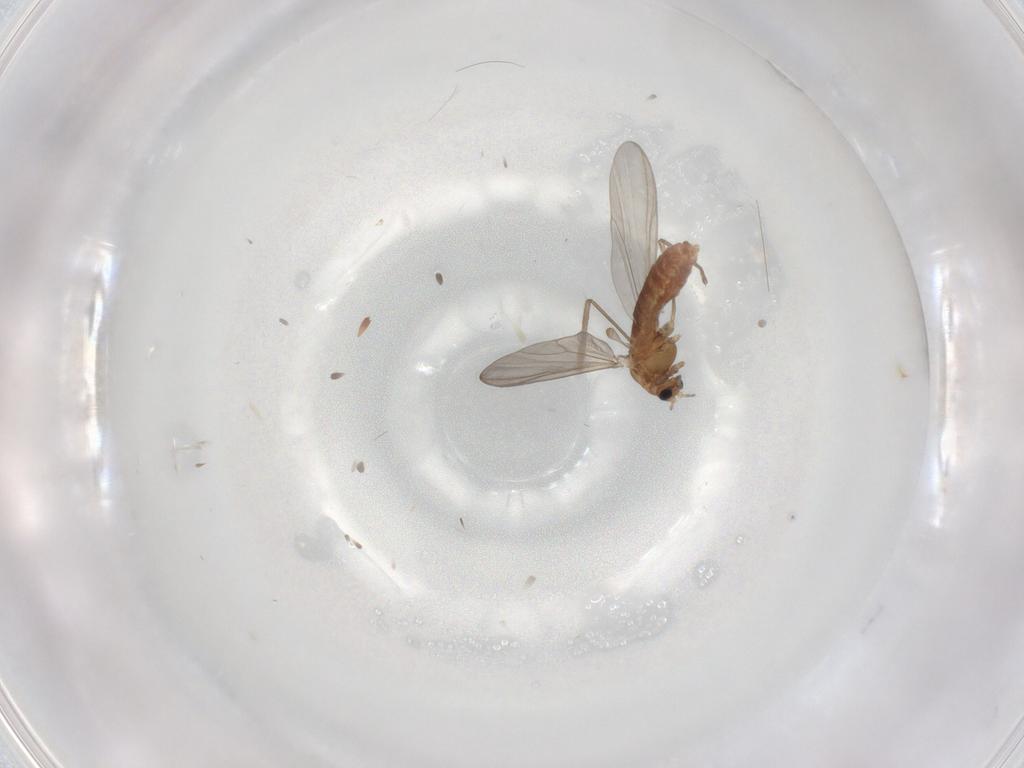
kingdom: Animalia
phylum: Arthropoda
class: Insecta
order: Diptera
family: Chironomidae
